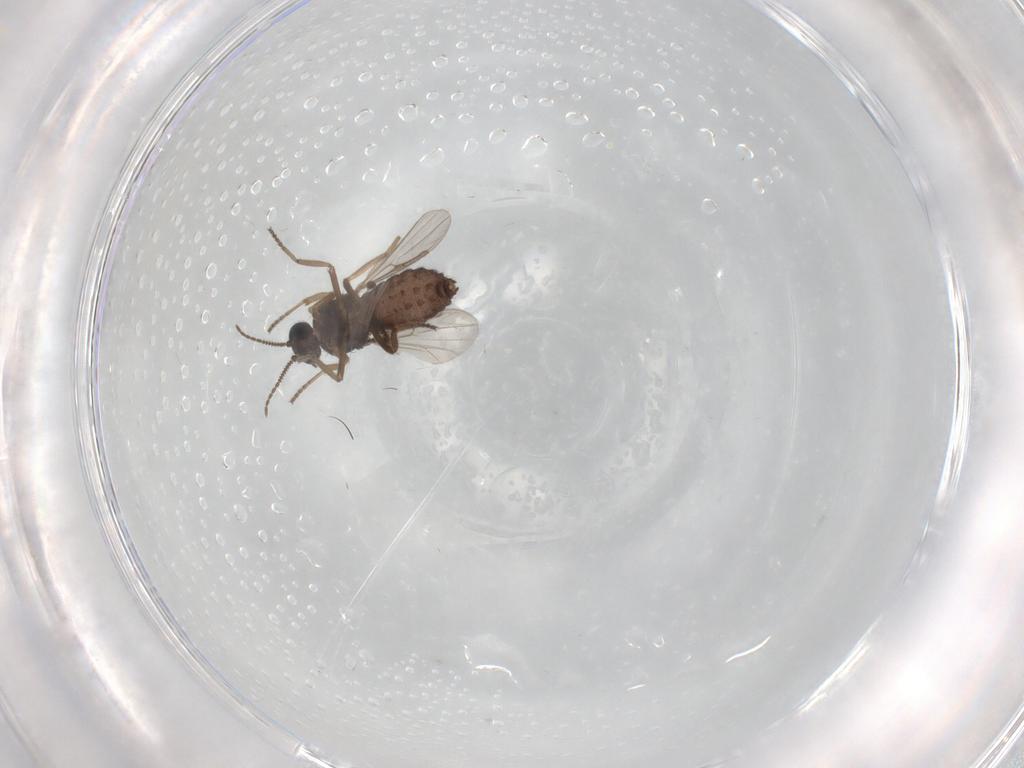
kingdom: Animalia
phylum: Arthropoda
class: Insecta
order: Diptera
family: Ceratopogonidae
